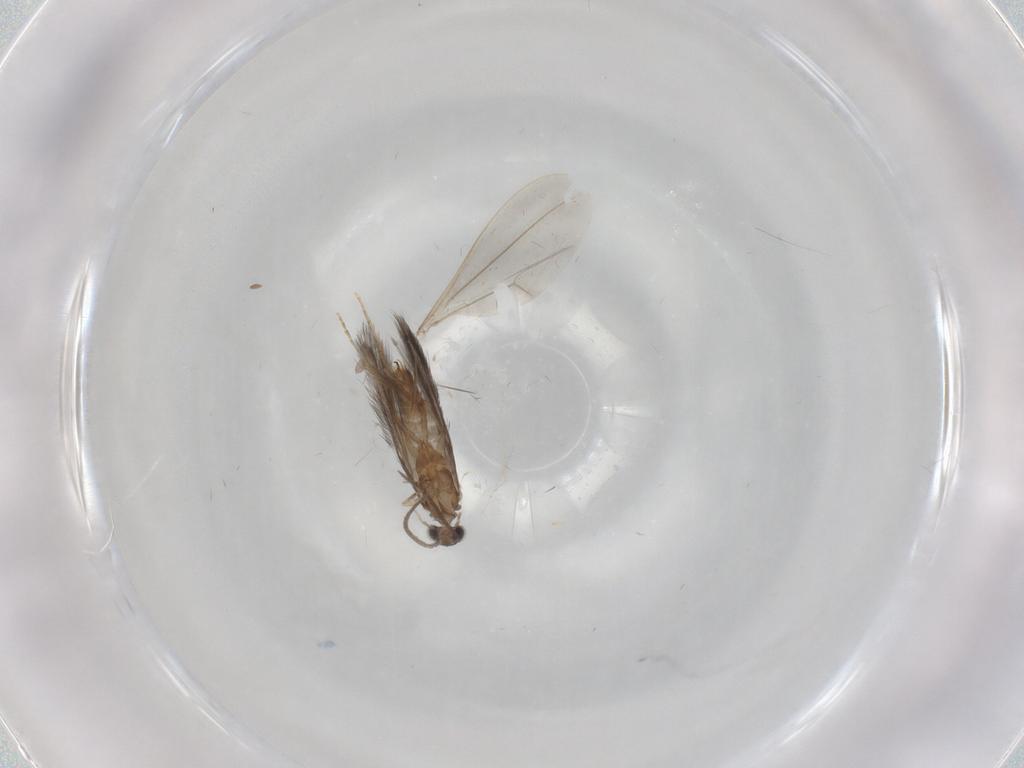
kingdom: Animalia
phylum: Arthropoda
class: Insecta
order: Trichoptera
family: Hydroptilidae
